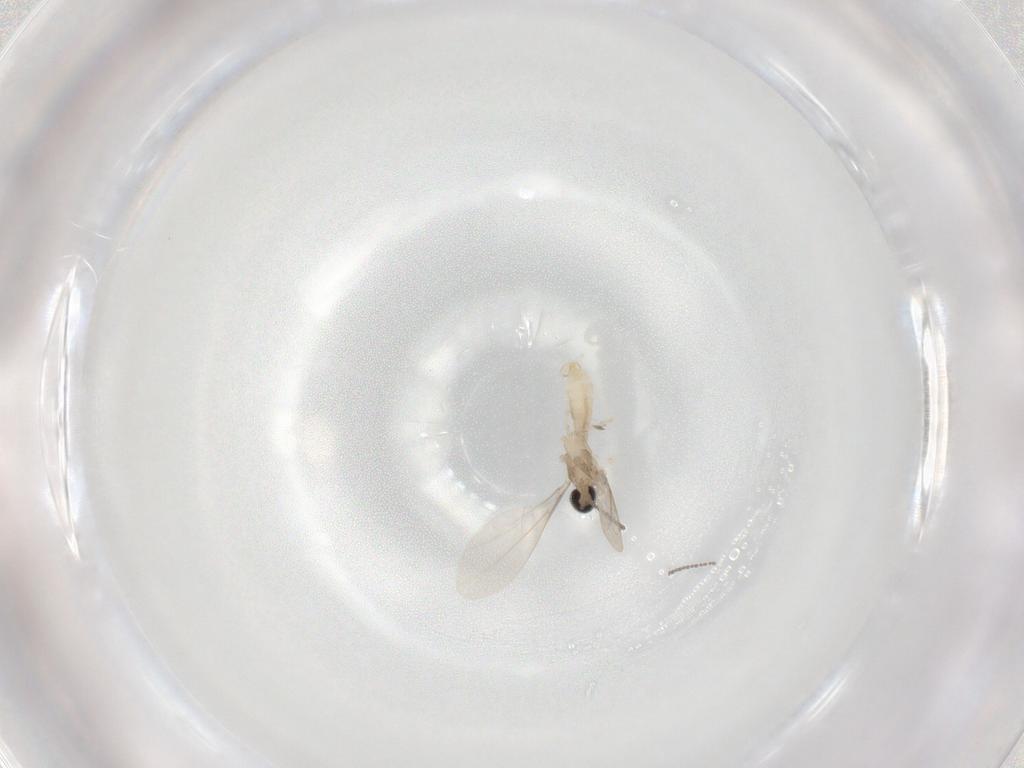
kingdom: Animalia
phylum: Arthropoda
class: Insecta
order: Diptera
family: Cecidomyiidae
